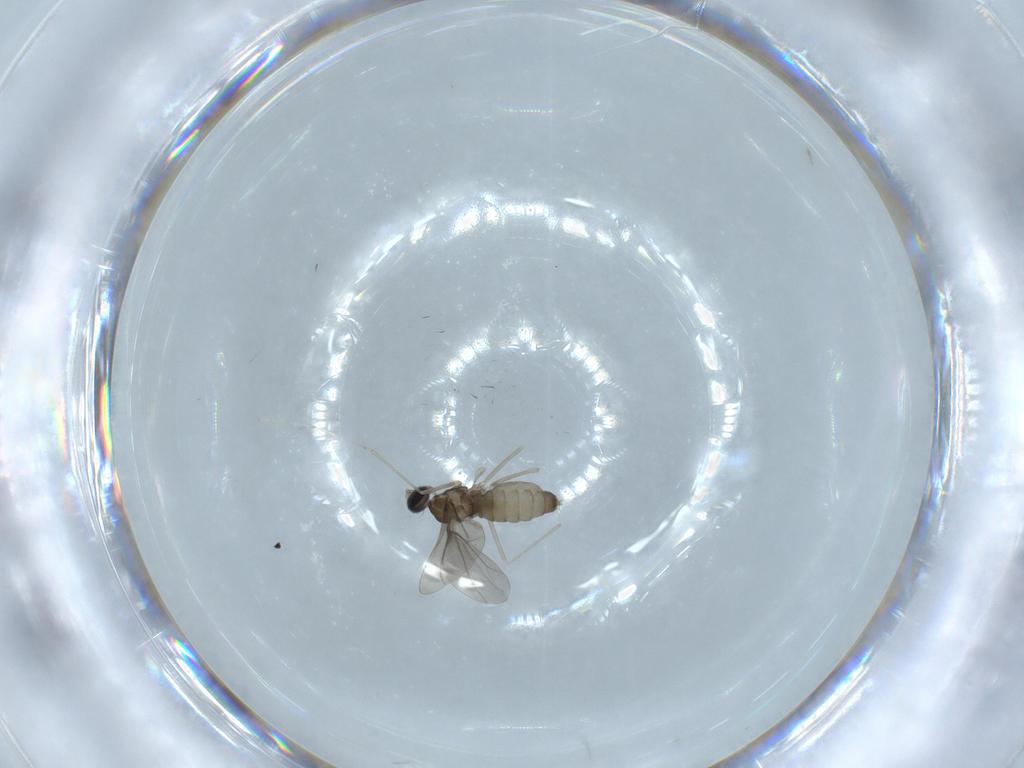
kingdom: Animalia
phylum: Arthropoda
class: Insecta
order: Diptera
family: Cecidomyiidae
